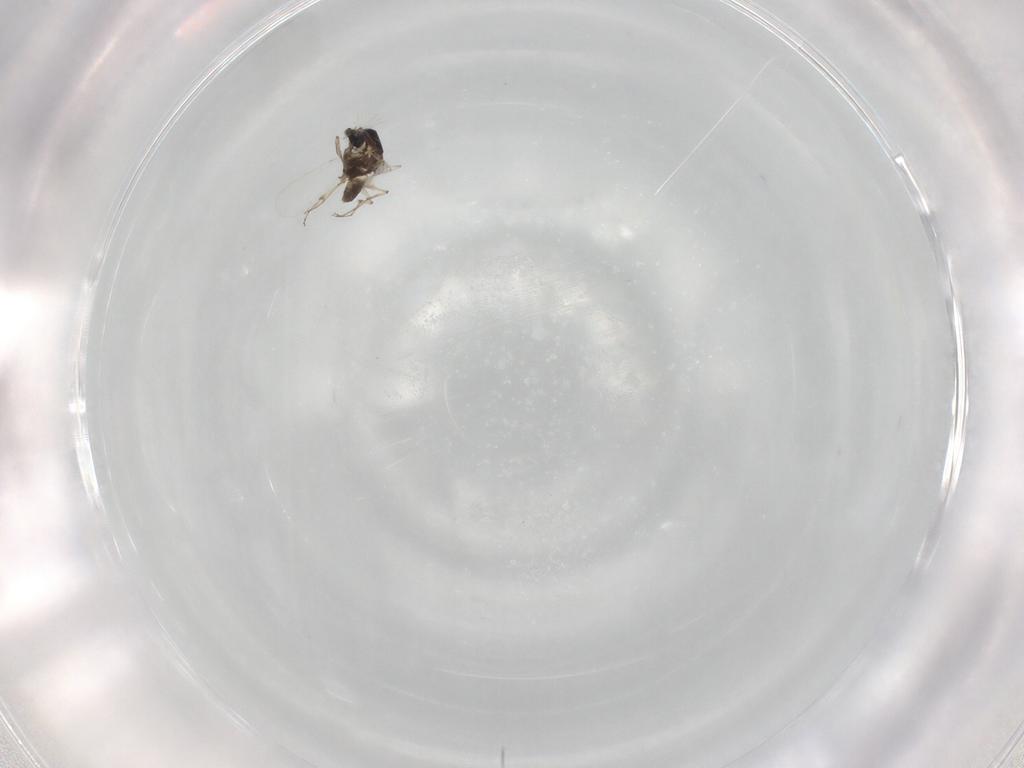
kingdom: Animalia
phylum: Arthropoda
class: Insecta
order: Diptera
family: Chironomidae
